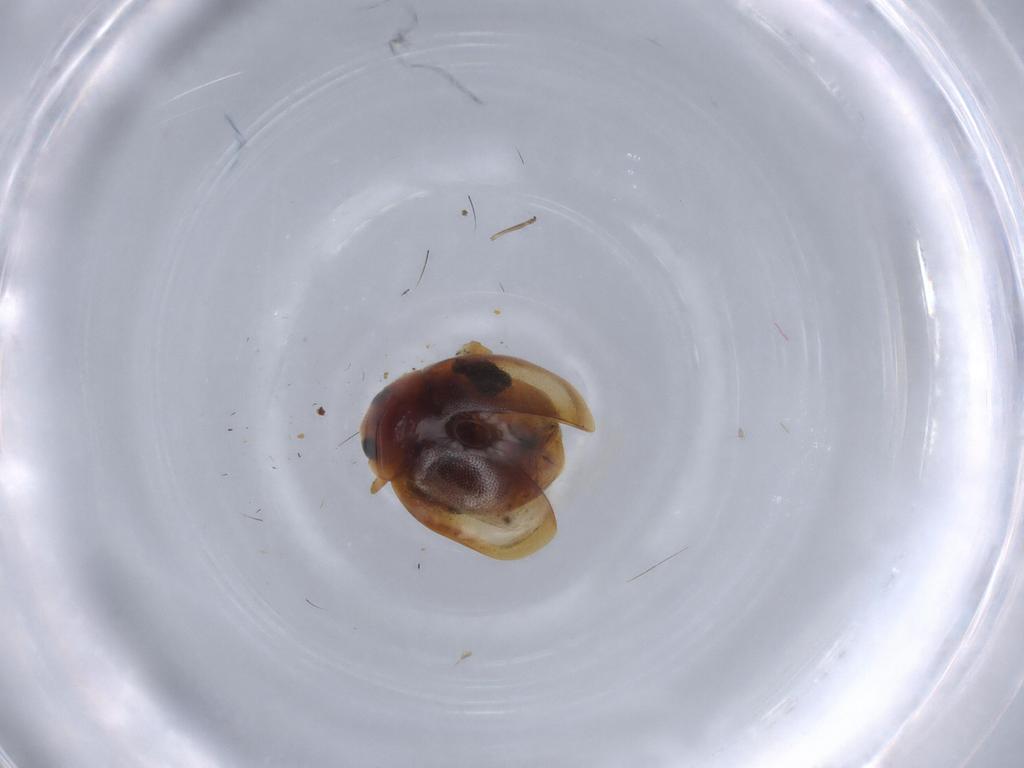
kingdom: Animalia
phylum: Arthropoda
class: Insecta
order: Coleoptera
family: Coccinellidae
